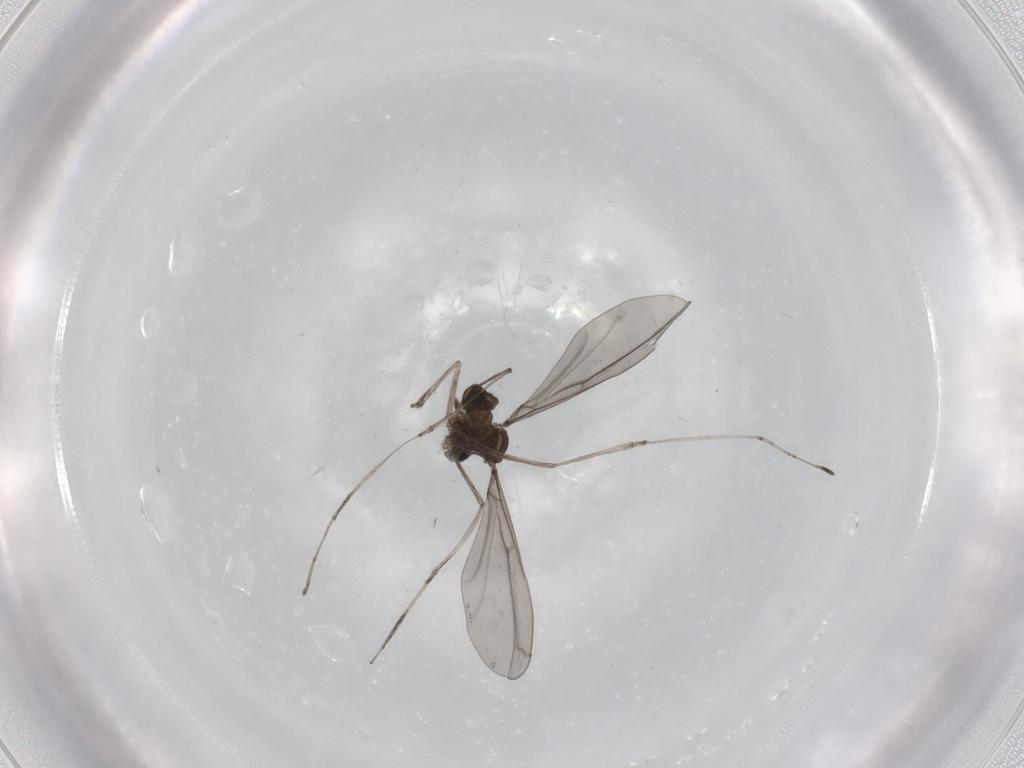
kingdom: Animalia
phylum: Arthropoda
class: Insecta
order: Diptera
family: Cecidomyiidae
